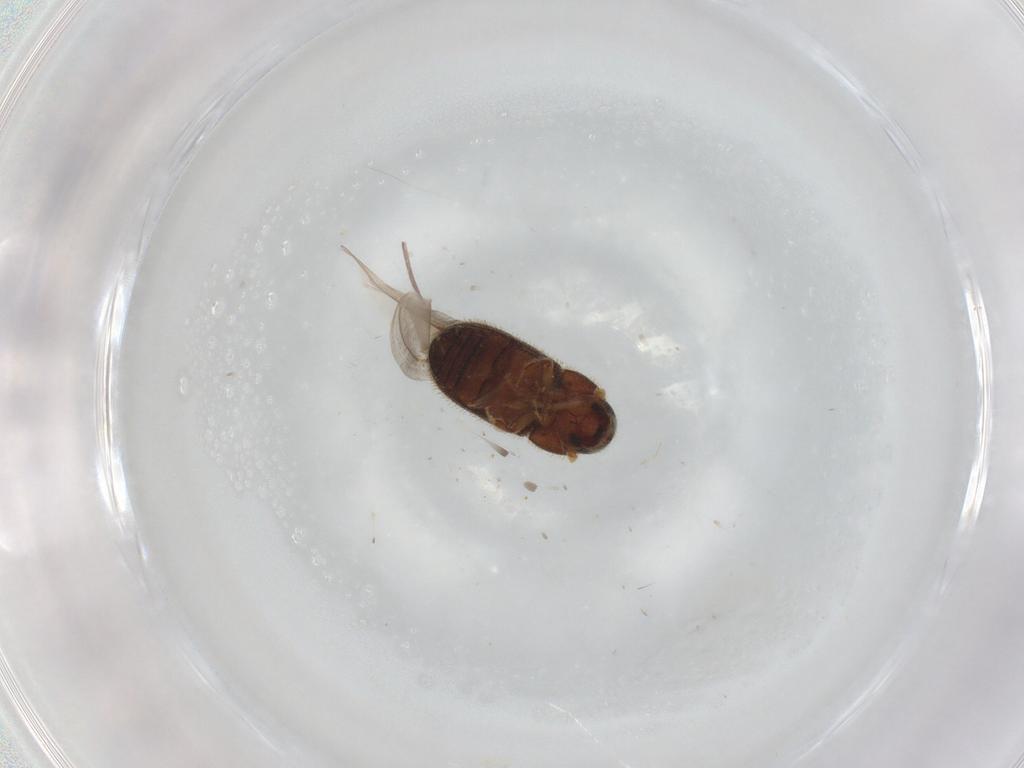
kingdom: Animalia
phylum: Arthropoda
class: Insecta
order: Coleoptera
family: Curculionidae
